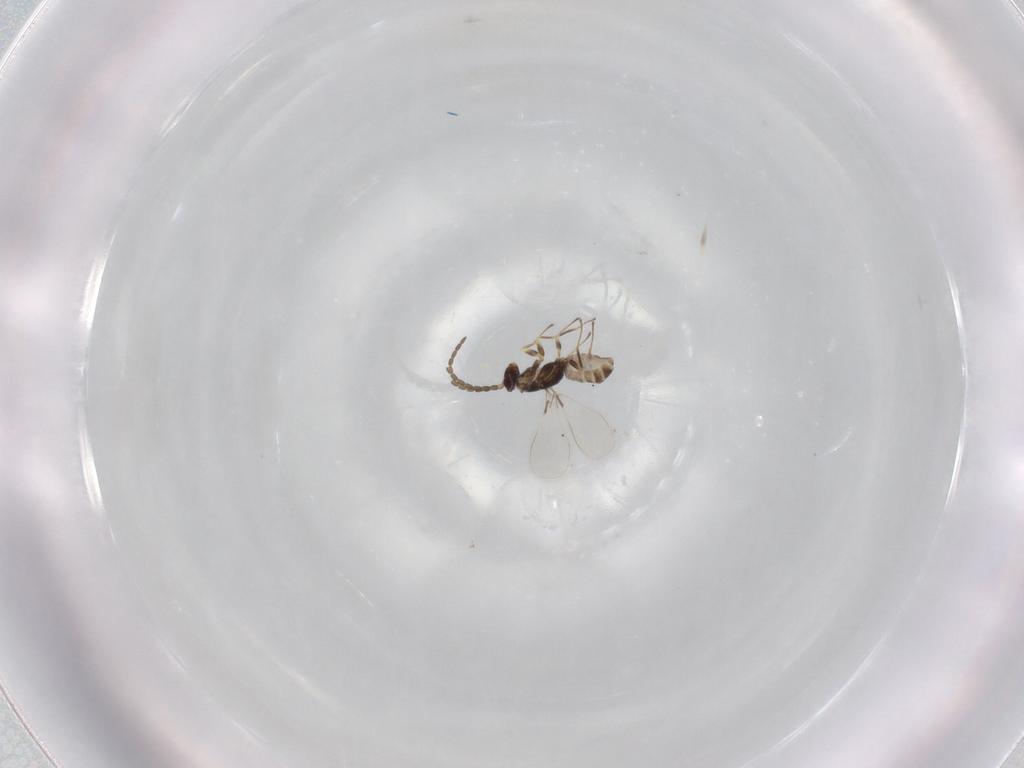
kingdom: Animalia
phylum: Arthropoda
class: Insecta
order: Hymenoptera
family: Mymaridae
